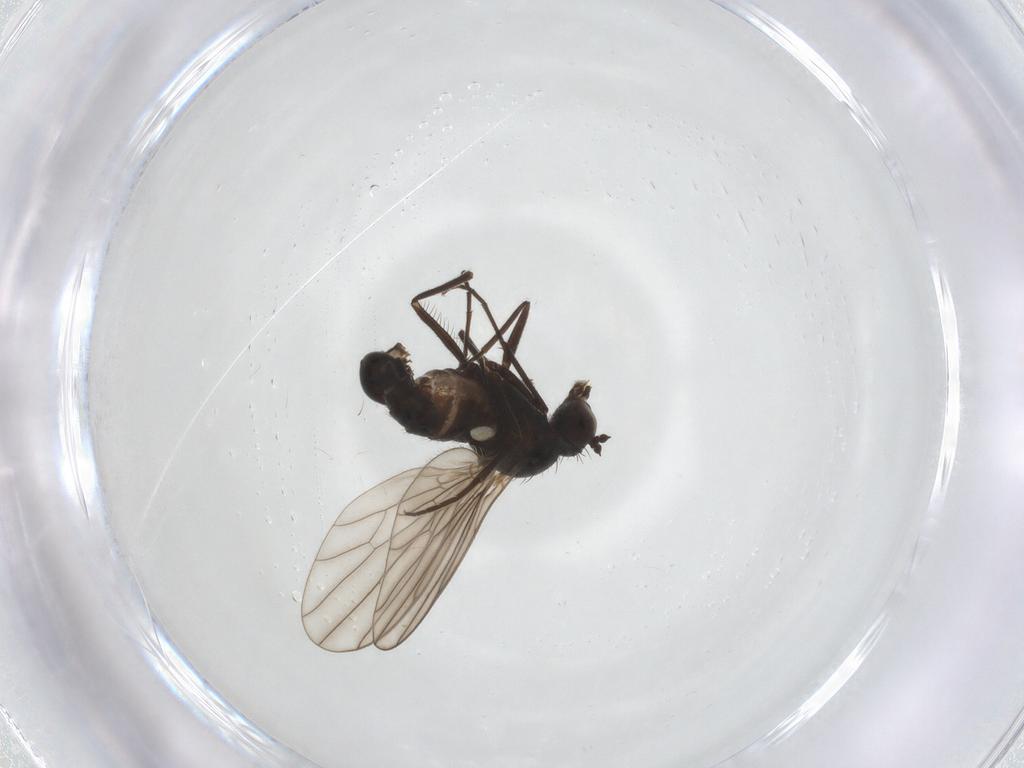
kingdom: Animalia
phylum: Arthropoda
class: Insecta
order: Diptera
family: Dolichopodidae
